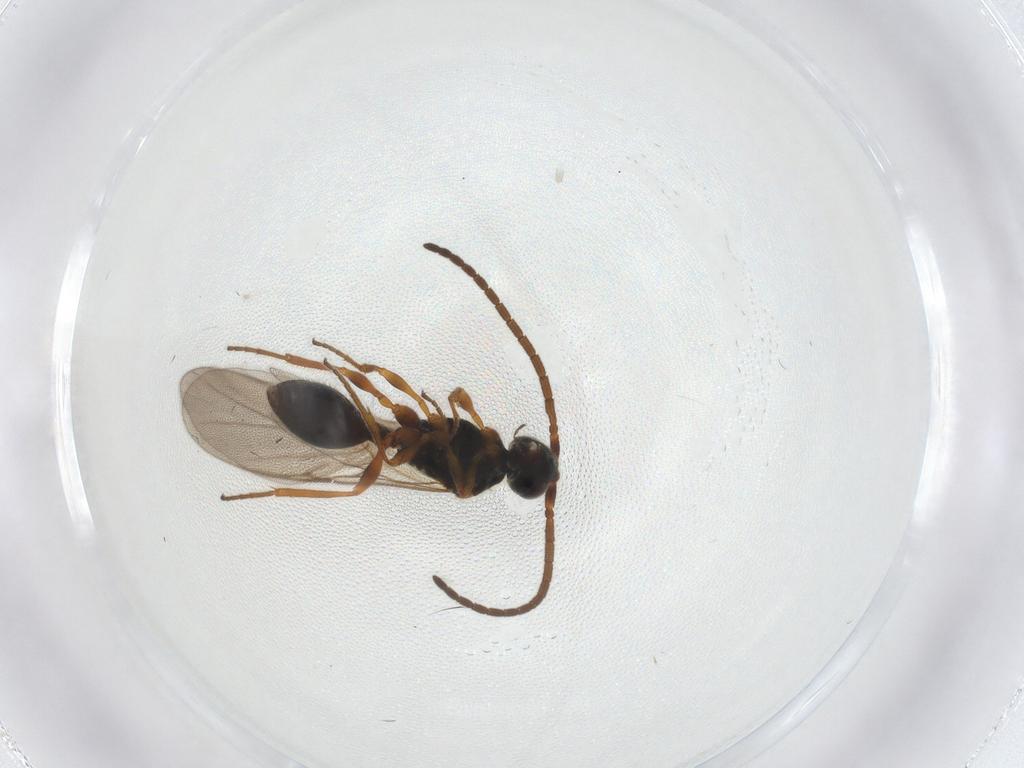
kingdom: Animalia
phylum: Arthropoda
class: Insecta
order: Hymenoptera
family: Diapriidae
